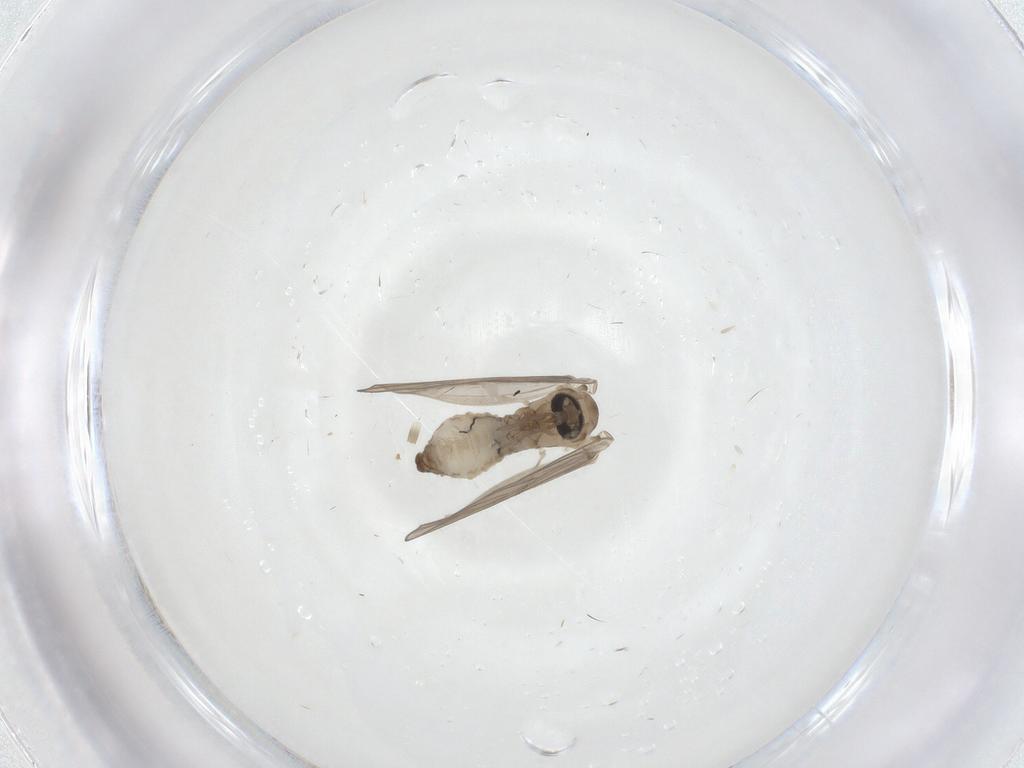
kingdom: Animalia
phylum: Arthropoda
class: Insecta
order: Diptera
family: Psychodidae
